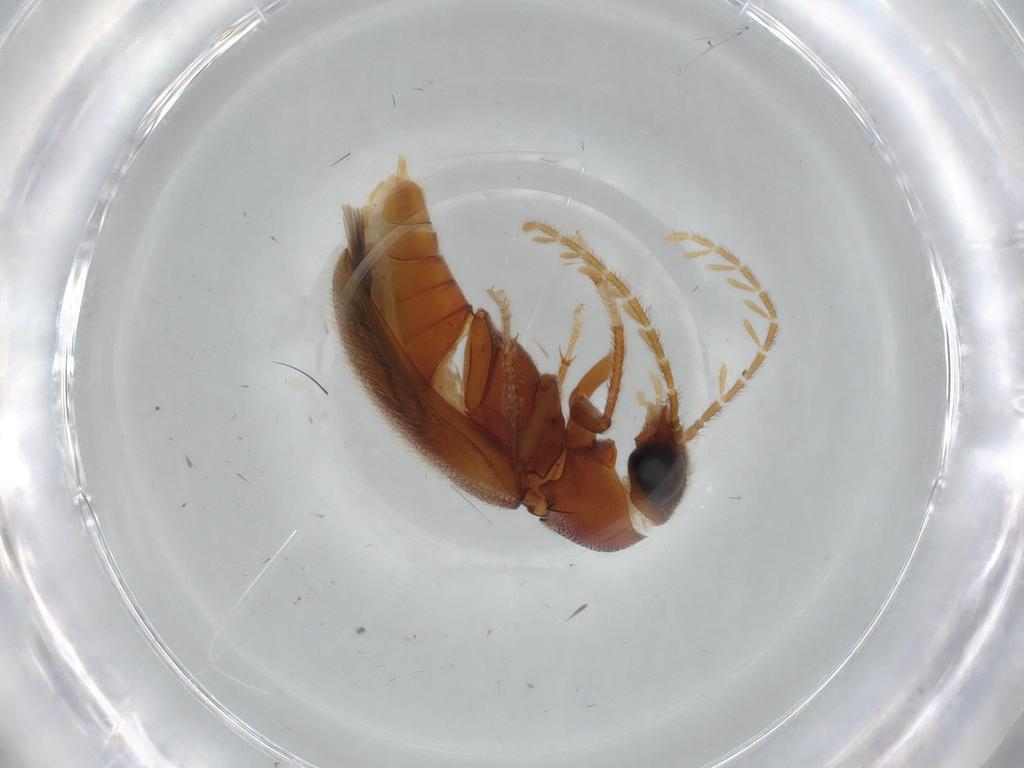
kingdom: Animalia
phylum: Arthropoda
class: Insecta
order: Coleoptera
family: Ptilodactylidae
